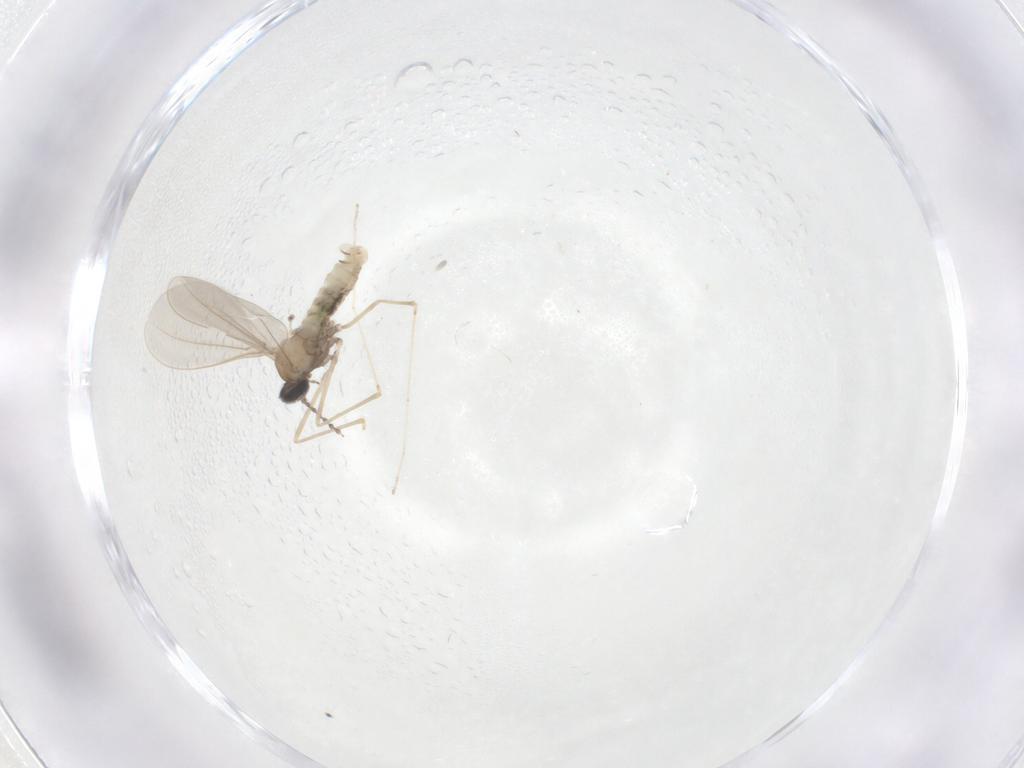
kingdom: Animalia
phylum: Arthropoda
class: Insecta
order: Diptera
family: Cecidomyiidae
